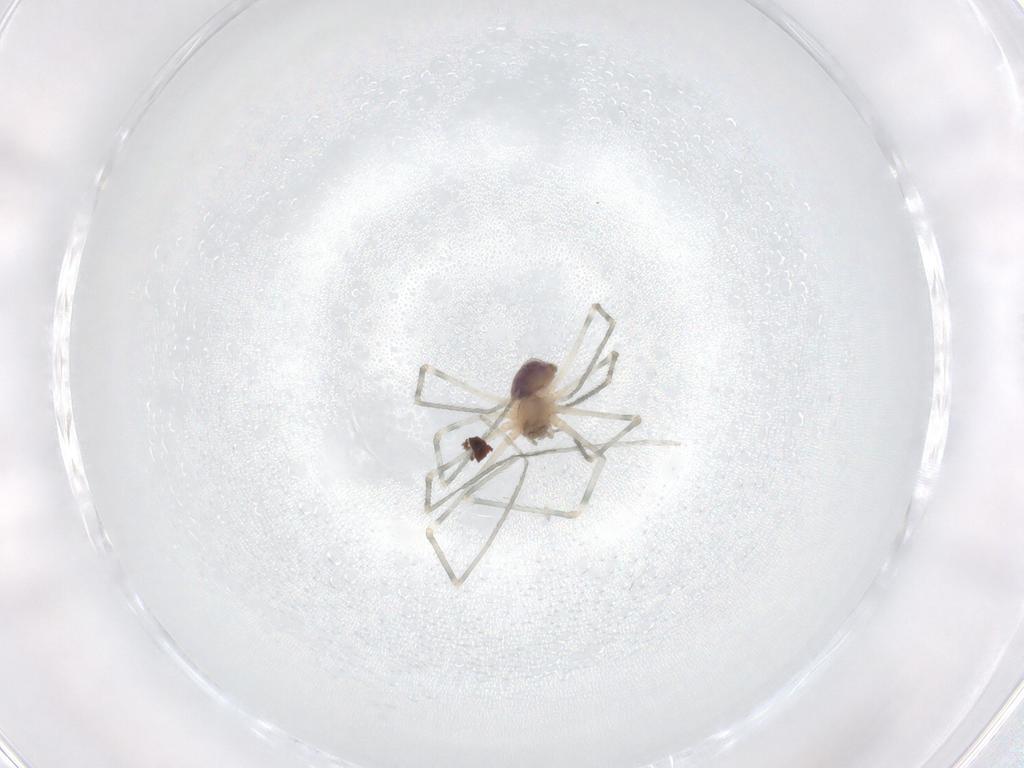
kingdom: Animalia
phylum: Arthropoda
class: Arachnida
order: Araneae
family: Pholcidae
